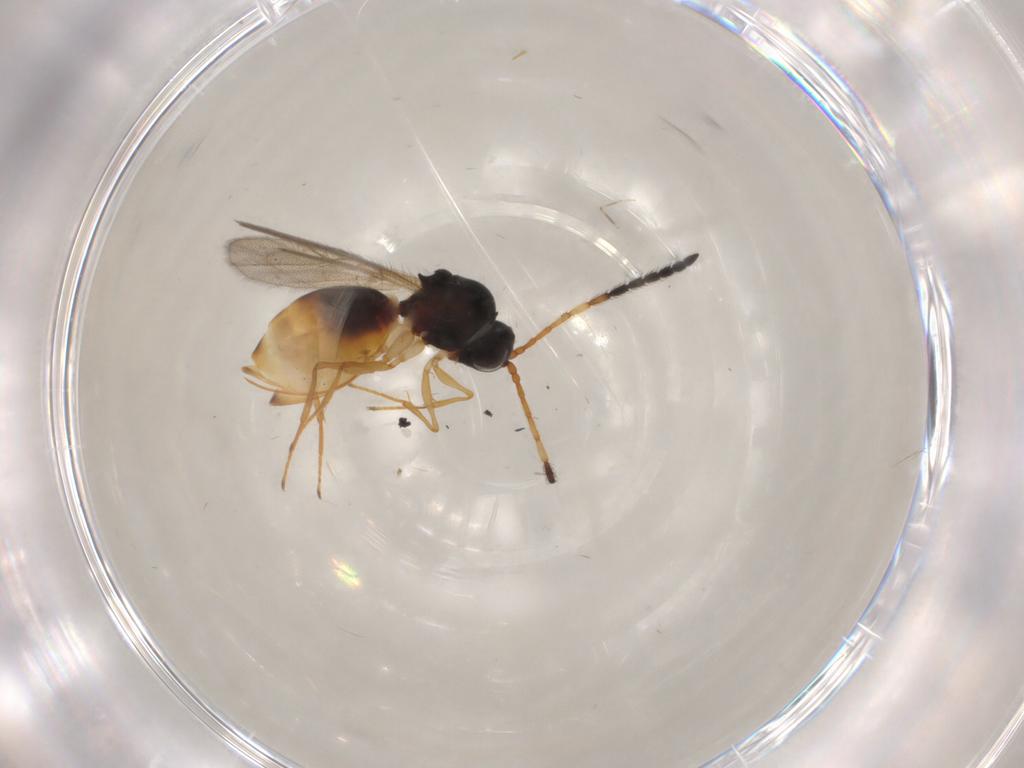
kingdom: Animalia
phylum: Arthropoda
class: Insecta
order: Hymenoptera
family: Figitidae
